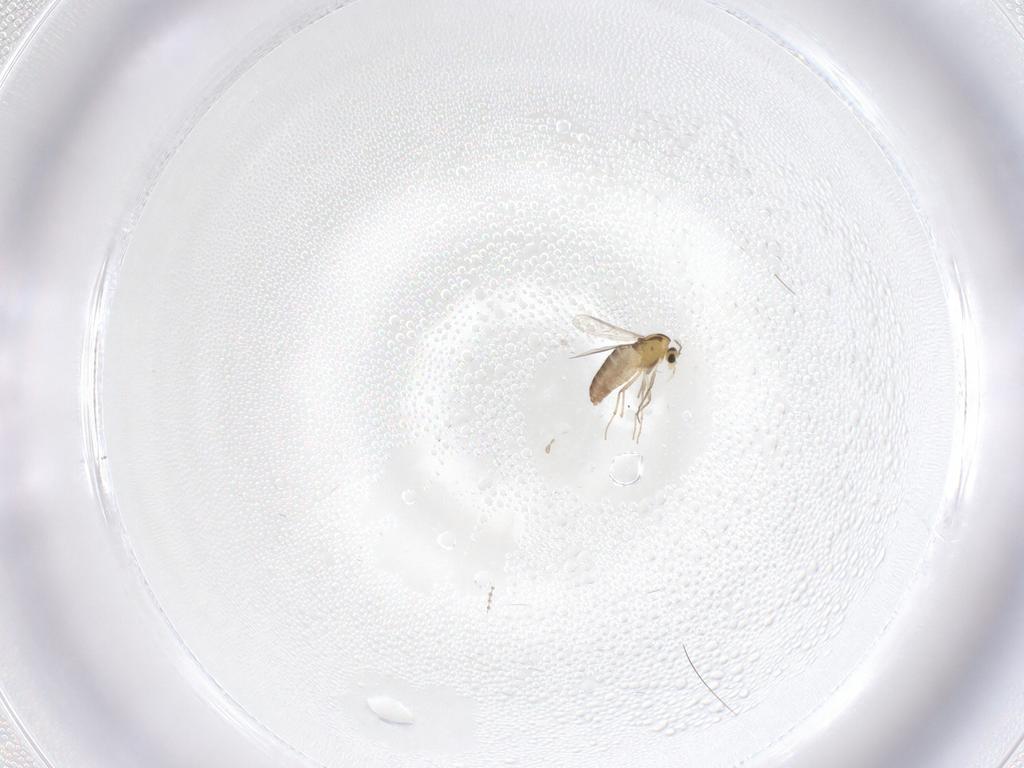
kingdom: Animalia
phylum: Arthropoda
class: Insecta
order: Diptera
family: Chironomidae
